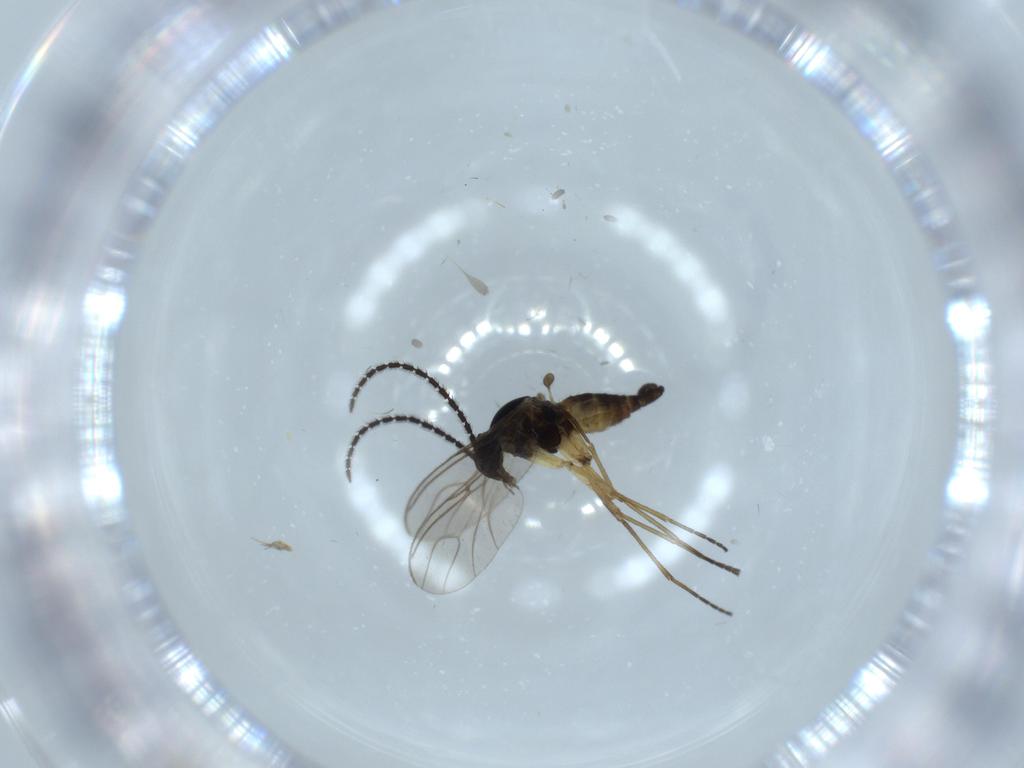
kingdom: Animalia
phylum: Arthropoda
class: Insecta
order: Diptera
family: Sciaridae
